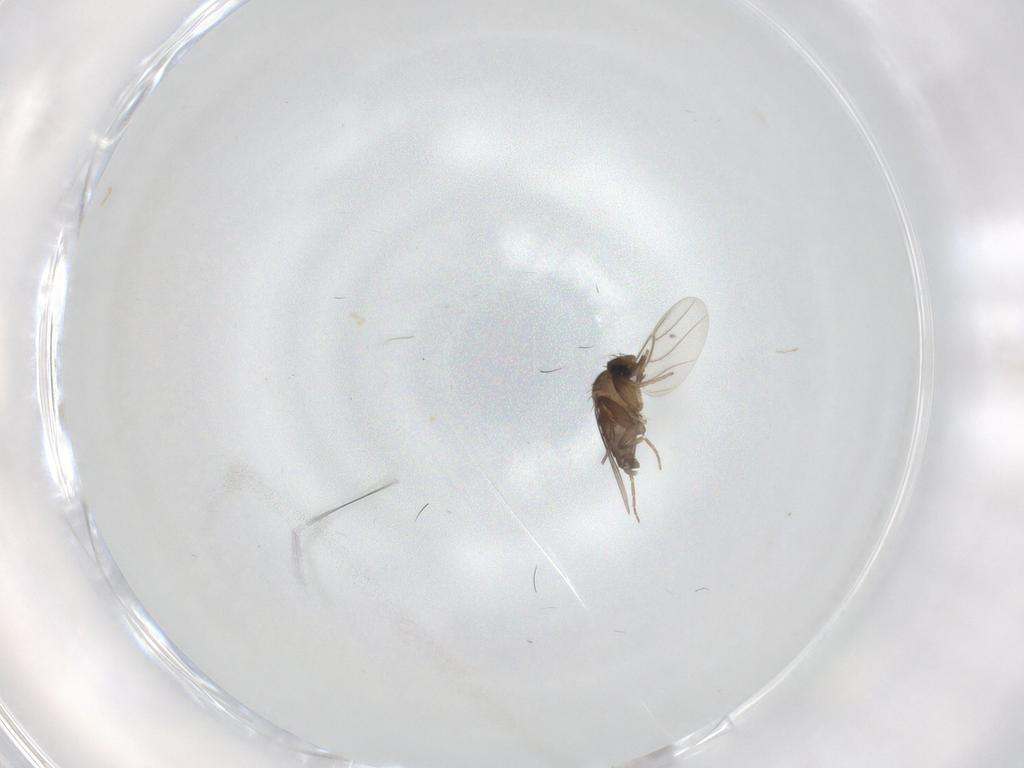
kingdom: Animalia
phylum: Arthropoda
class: Insecta
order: Diptera
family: Phoridae
